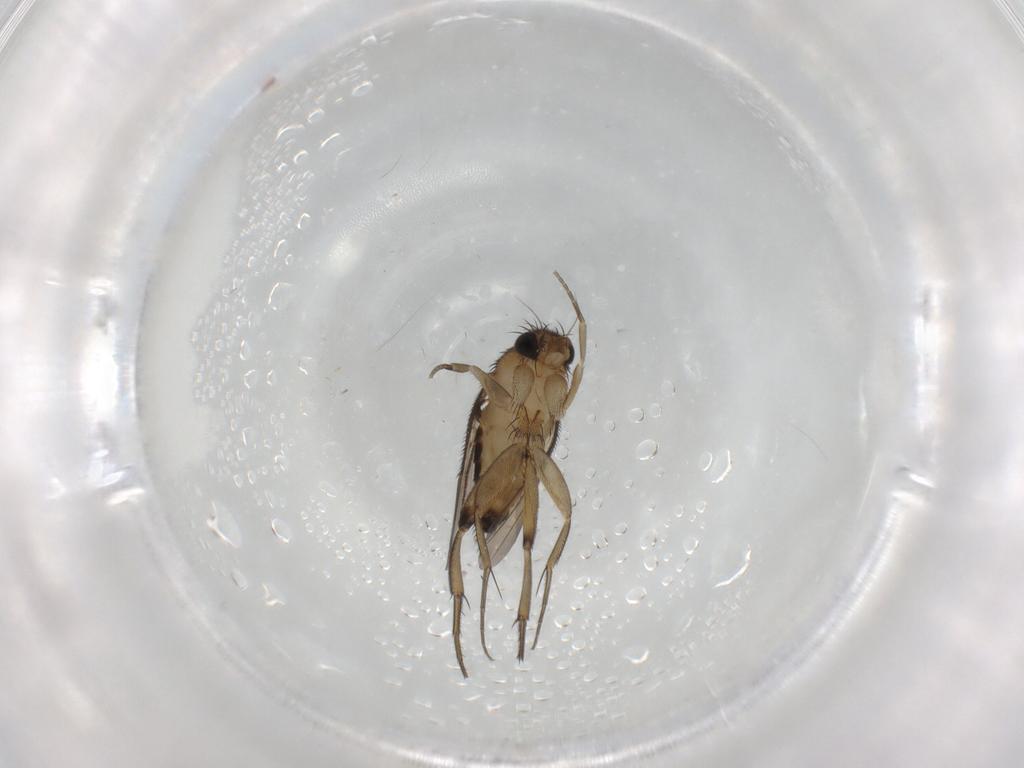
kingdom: Animalia
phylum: Arthropoda
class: Insecta
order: Diptera
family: Phoridae
